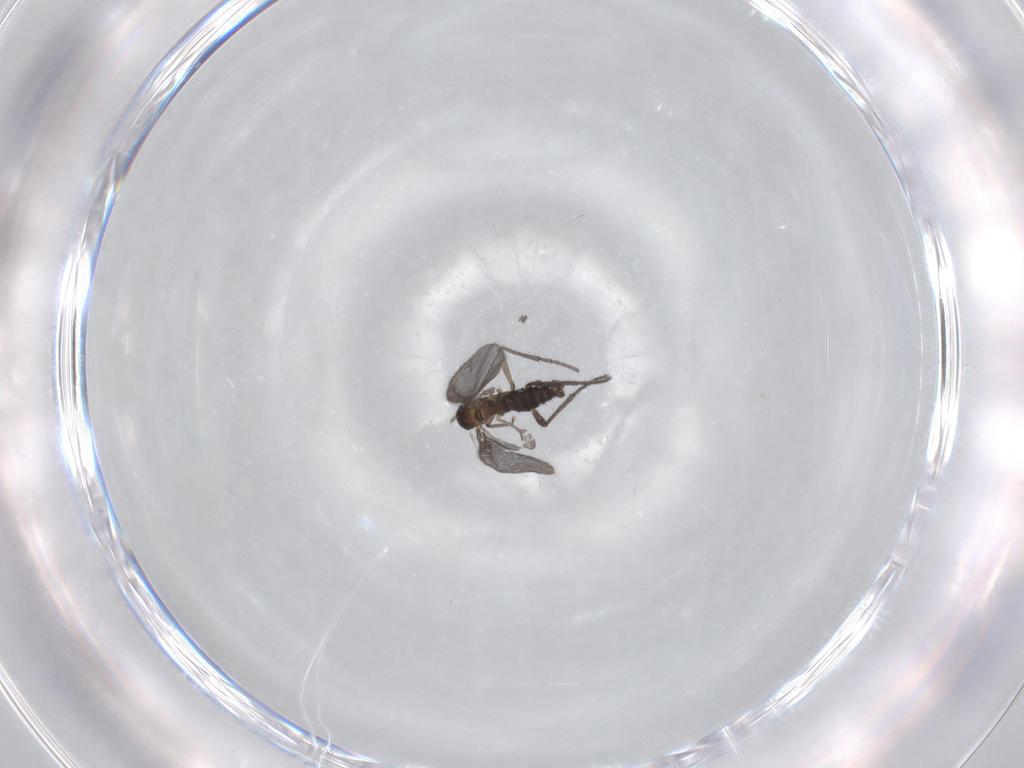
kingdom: Animalia
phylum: Arthropoda
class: Insecta
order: Diptera
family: Sciaridae
